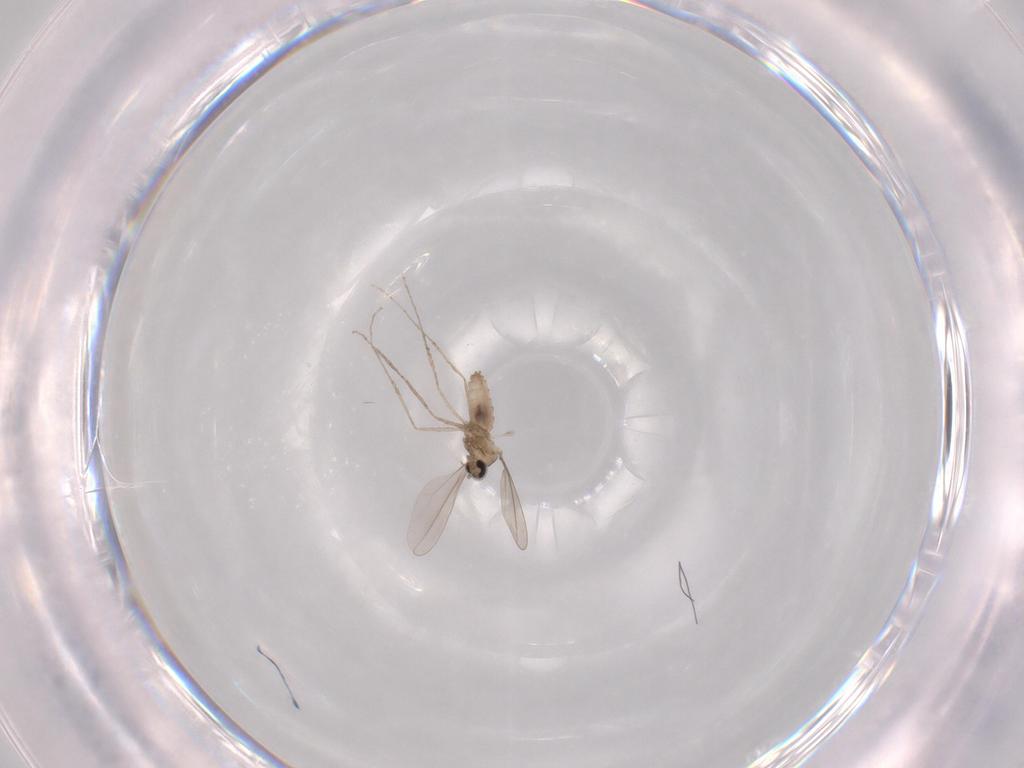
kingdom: Animalia
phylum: Arthropoda
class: Insecta
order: Diptera
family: Cecidomyiidae
